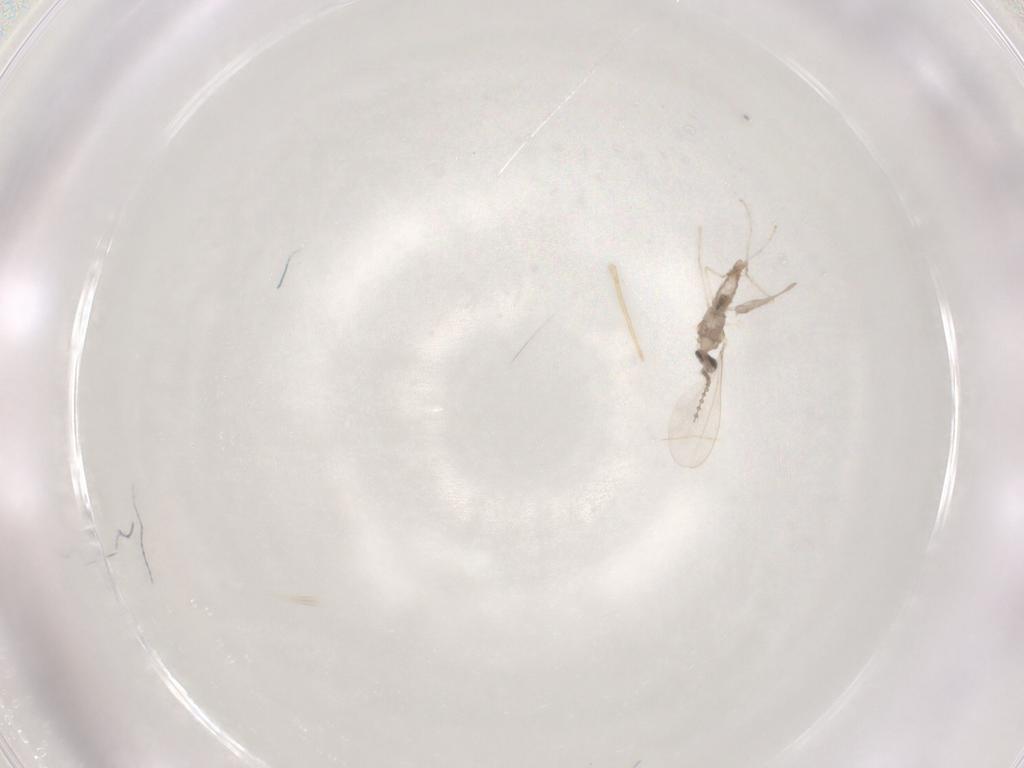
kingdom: Animalia
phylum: Arthropoda
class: Insecta
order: Diptera
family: Cecidomyiidae
